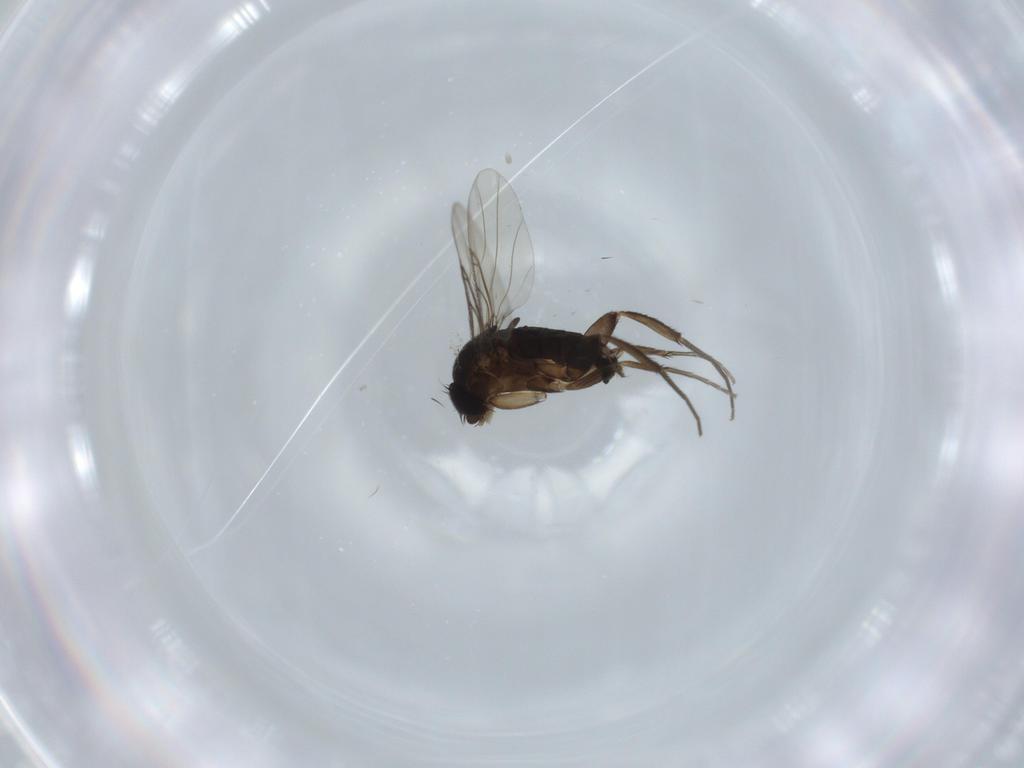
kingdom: Animalia
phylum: Arthropoda
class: Insecta
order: Diptera
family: Phoridae
